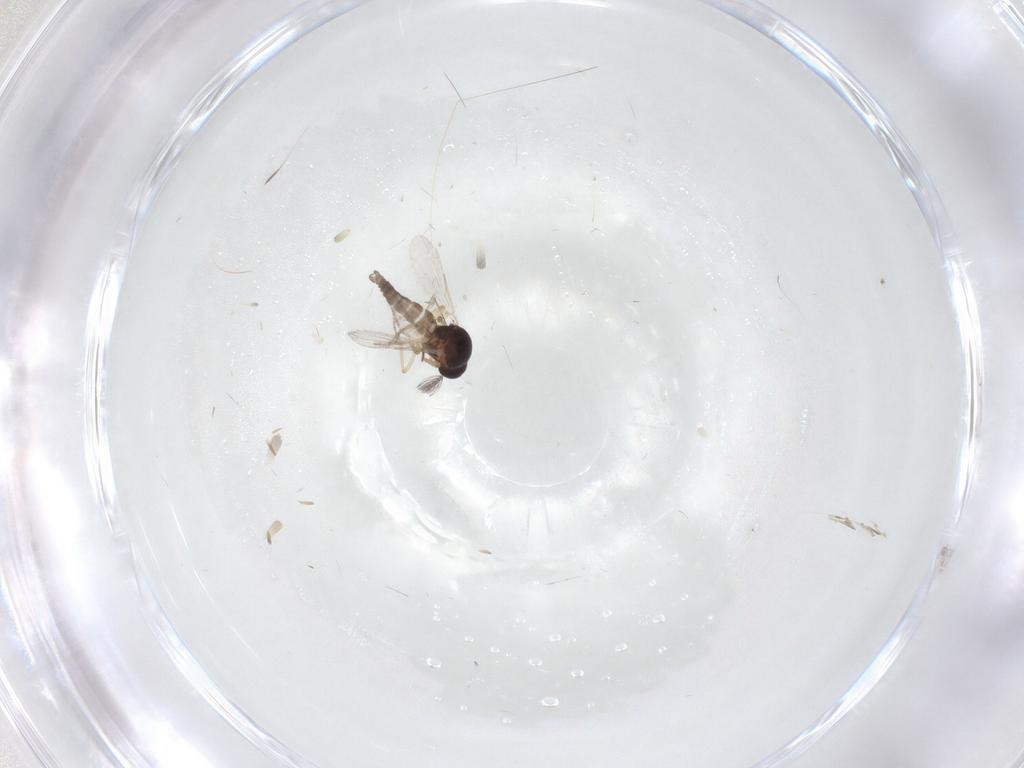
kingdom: Animalia
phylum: Arthropoda
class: Insecta
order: Diptera
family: Ceratopogonidae
